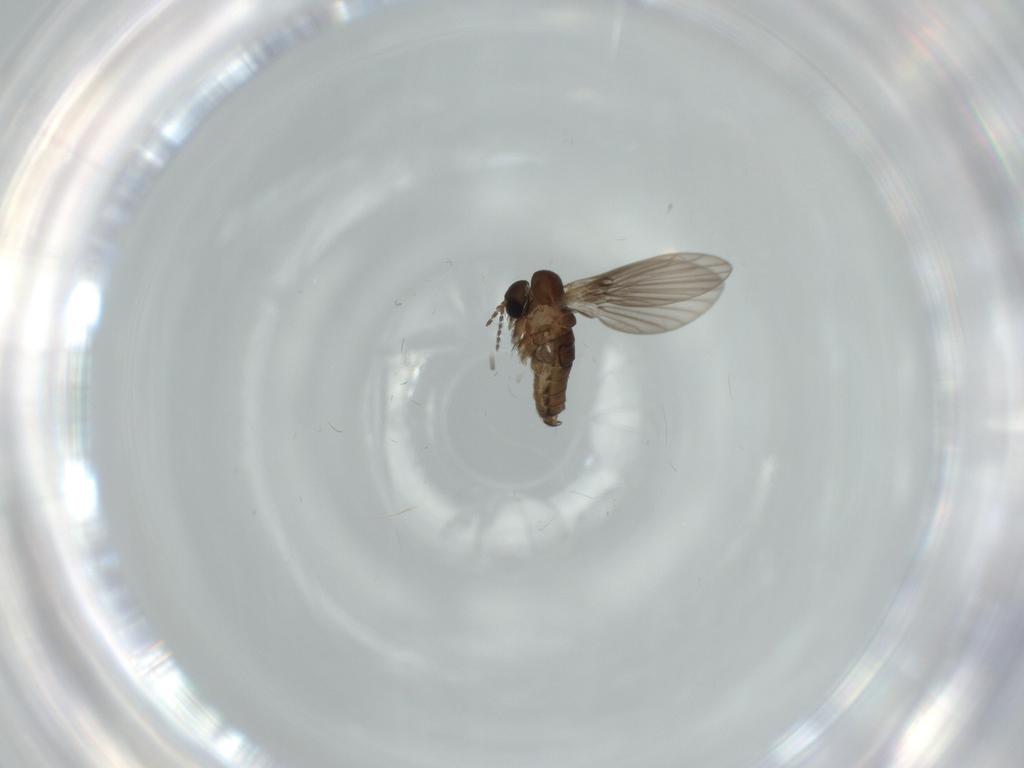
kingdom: Animalia
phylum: Arthropoda
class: Insecta
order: Diptera
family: Psychodidae
